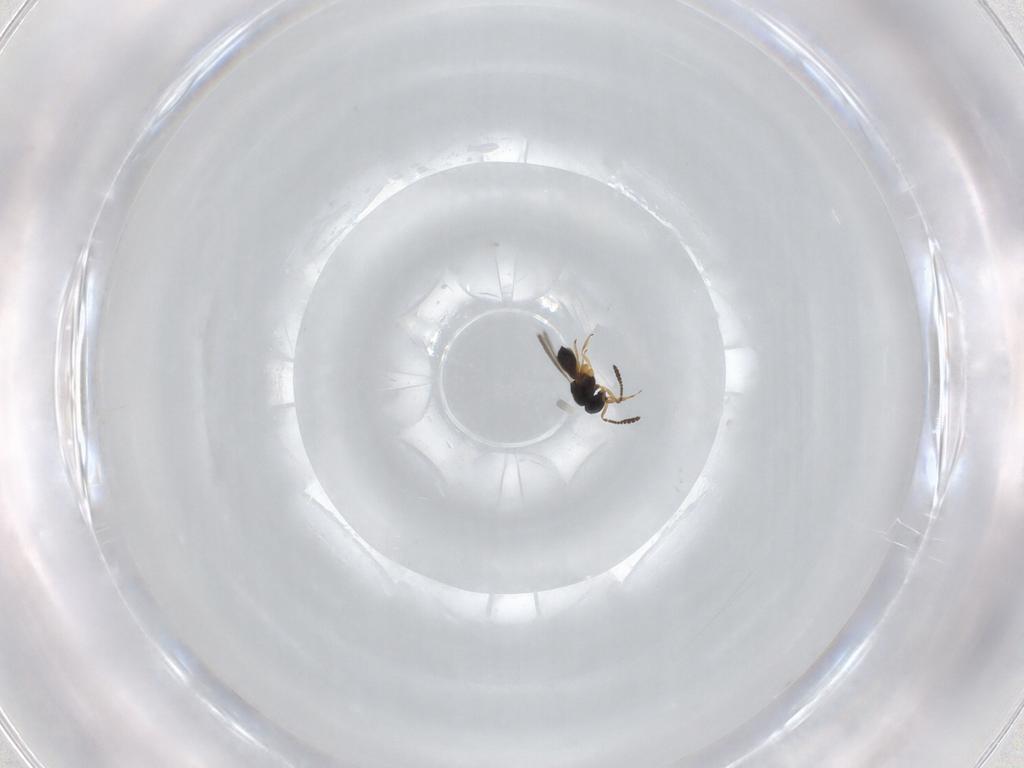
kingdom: Animalia
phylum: Arthropoda
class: Insecta
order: Hymenoptera
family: Scelionidae
